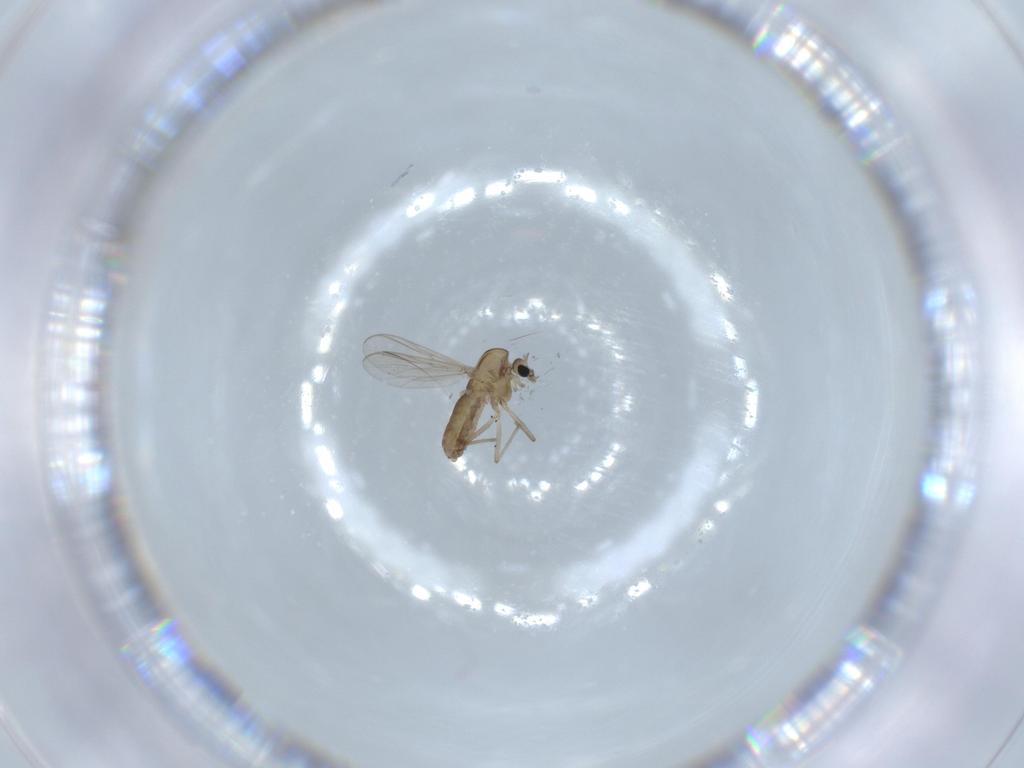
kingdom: Animalia
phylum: Arthropoda
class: Insecta
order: Diptera
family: Chironomidae
